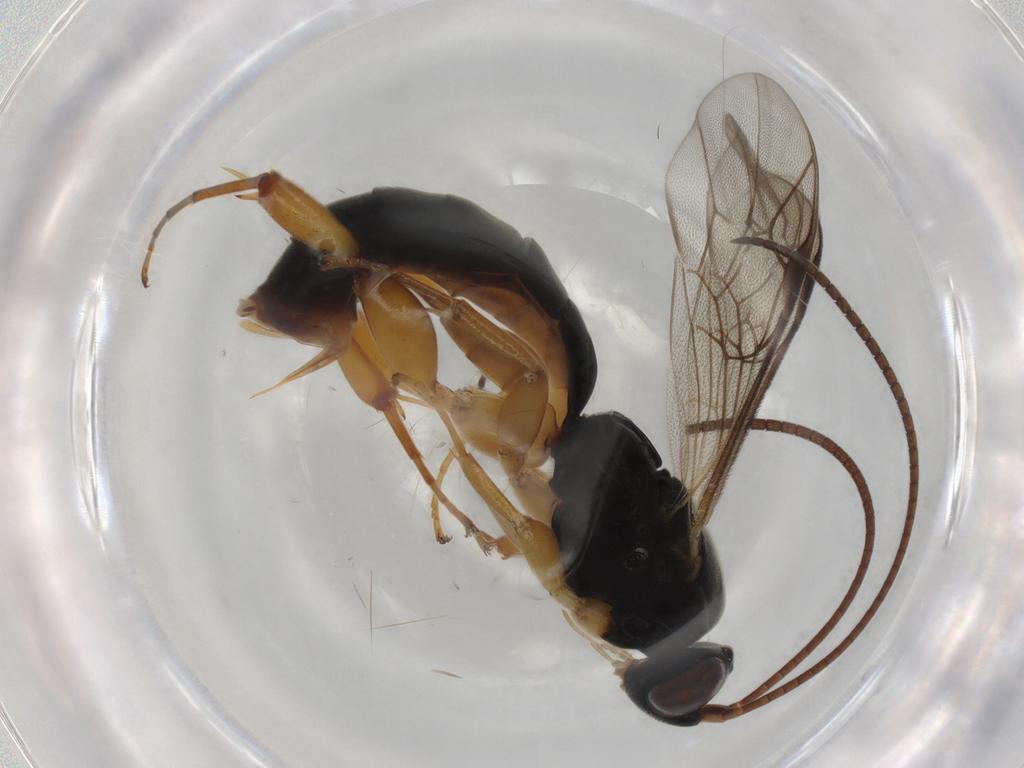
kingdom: Animalia
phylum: Arthropoda
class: Insecta
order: Hymenoptera
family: Ichneumonidae
